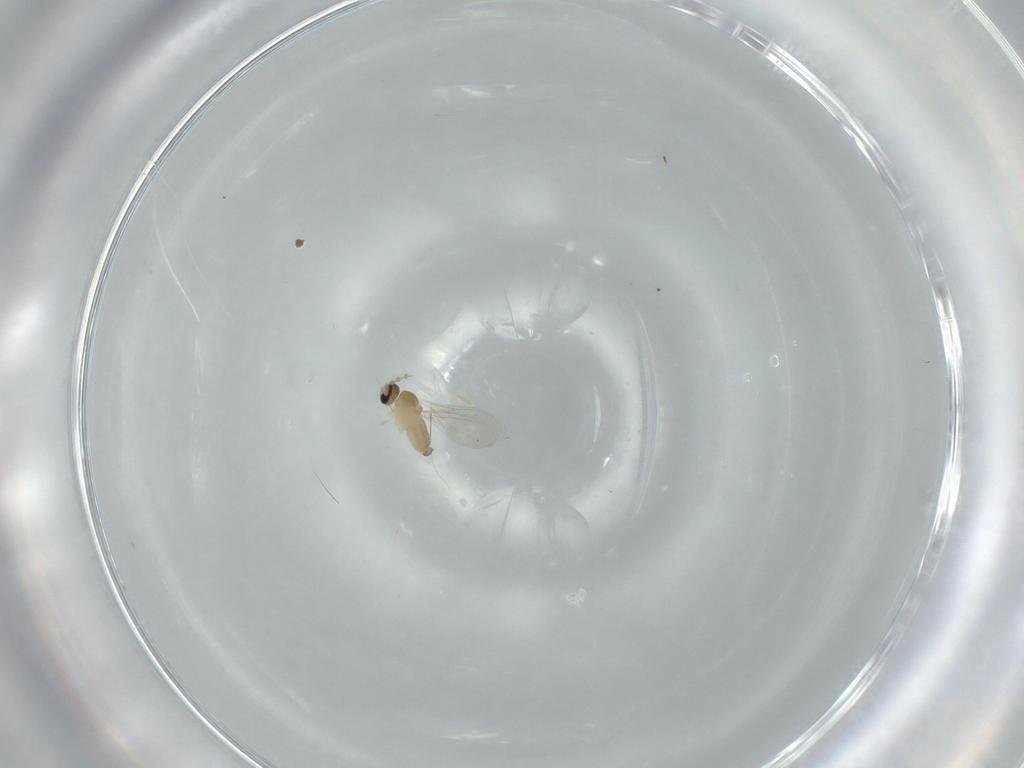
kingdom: Animalia
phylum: Arthropoda
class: Insecta
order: Diptera
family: Cecidomyiidae
